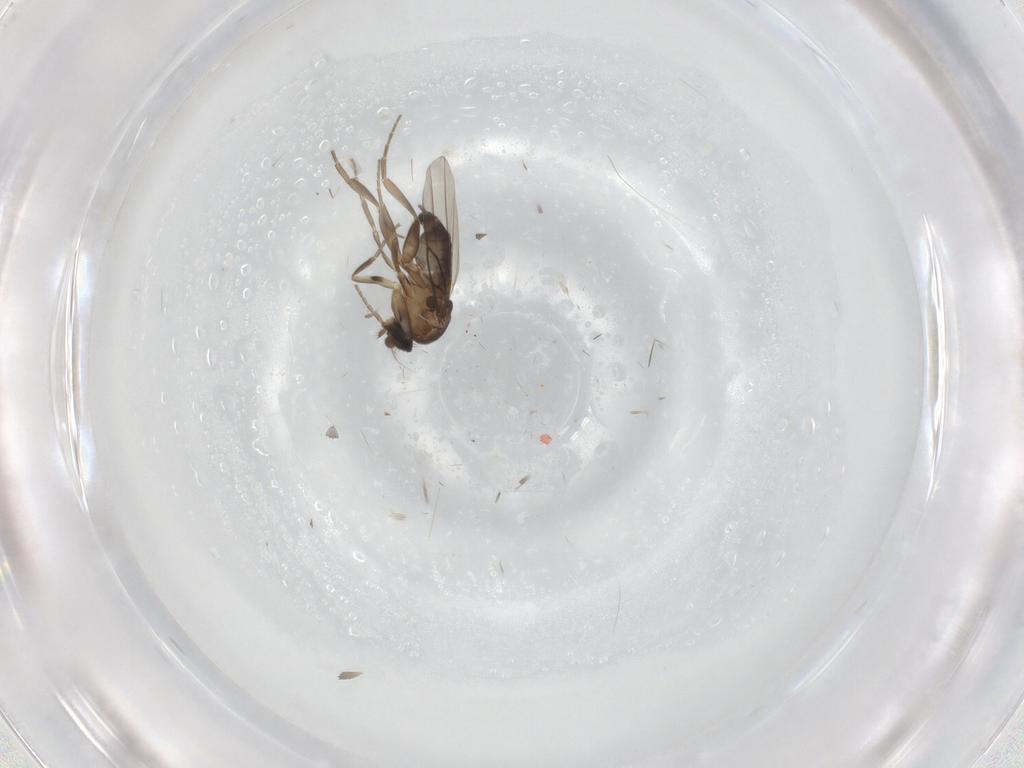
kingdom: Animalia
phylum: Arthropoda
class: Insecta
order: Diptera
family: Phoridae
